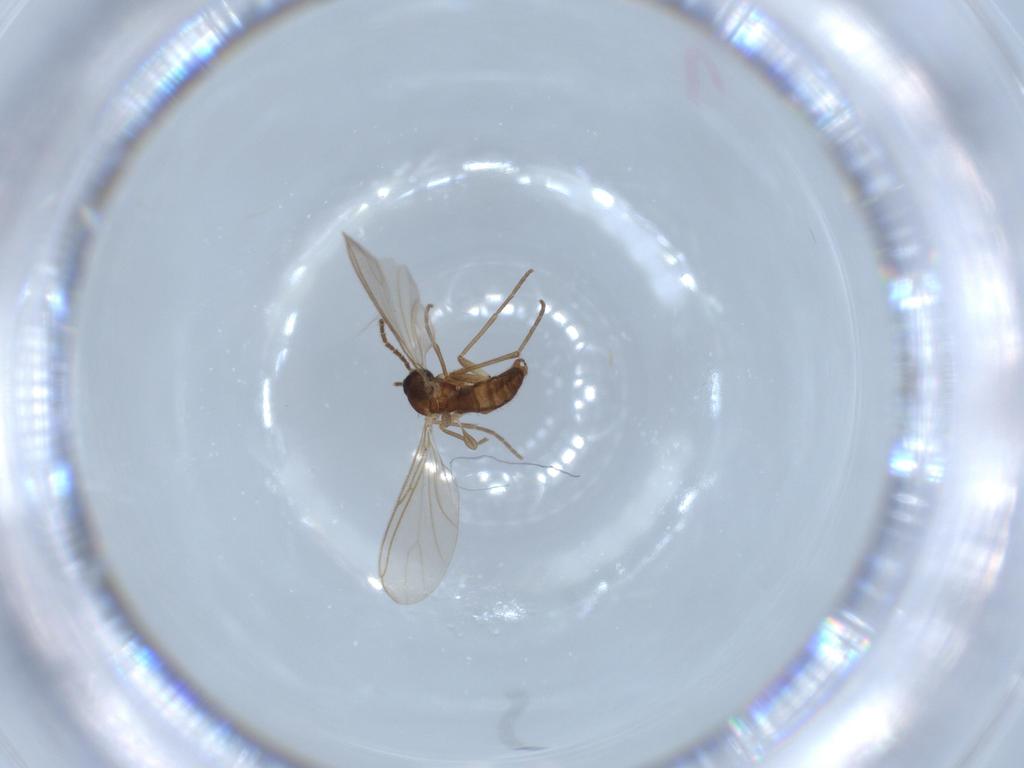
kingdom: Animalia
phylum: Arthropoda
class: Insecta
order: Diptera
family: Sciaridae
